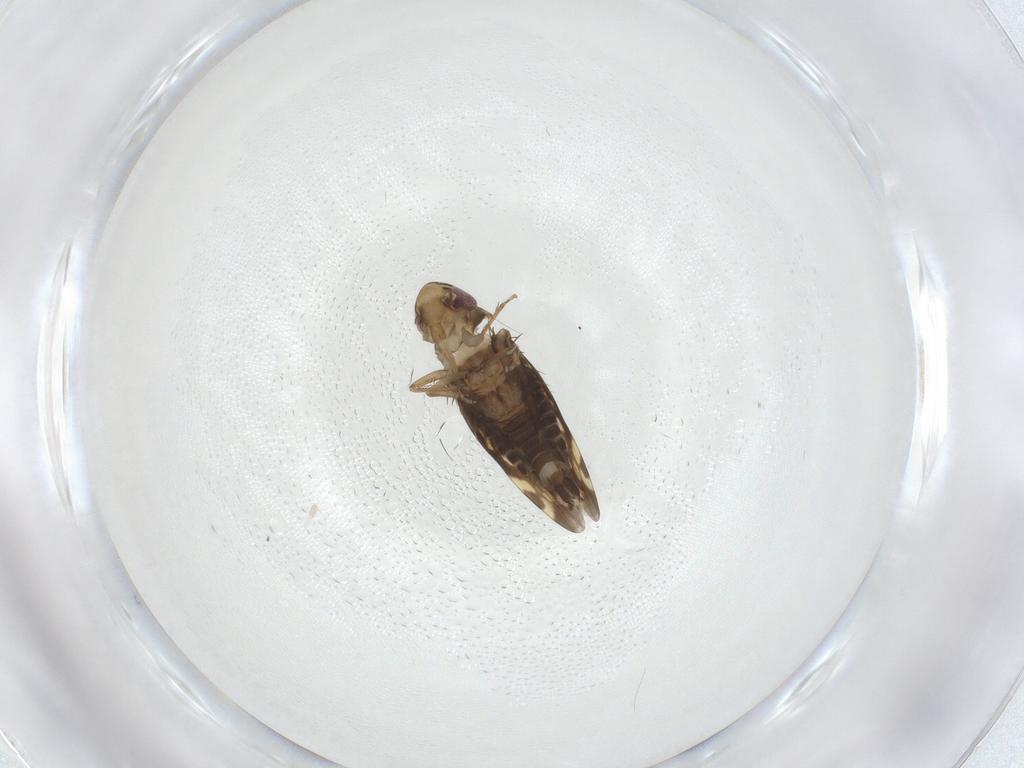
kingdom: Animalia
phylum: Arthropoda
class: Insecta
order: Hemiptera
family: Cicadellidae
